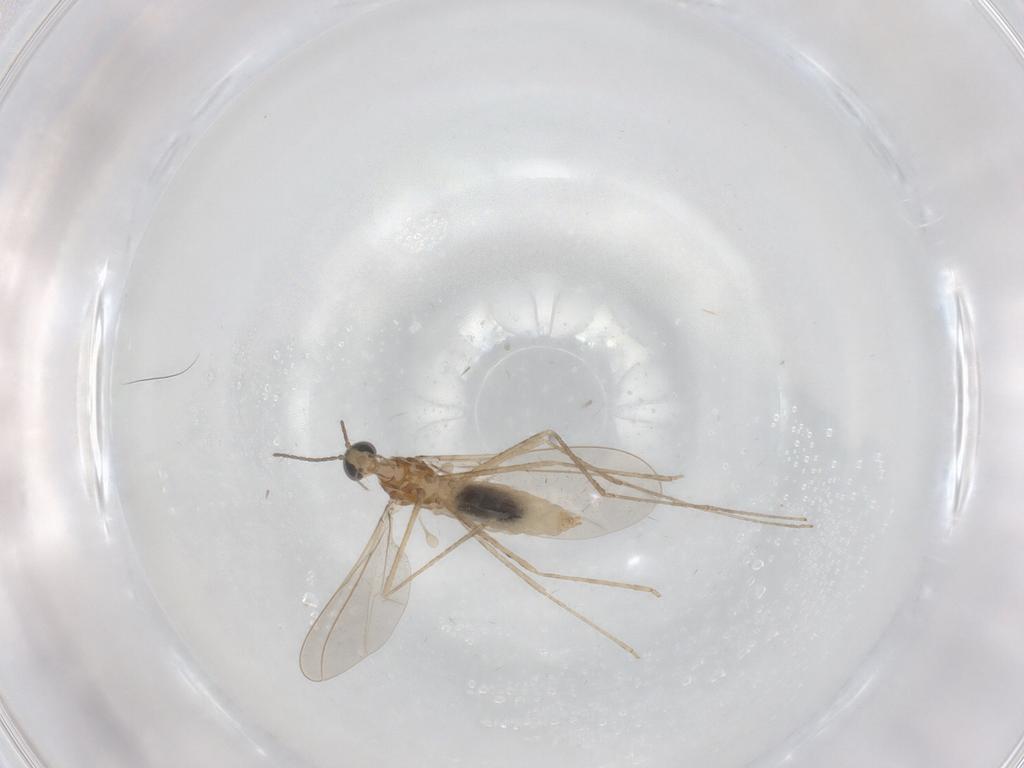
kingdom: Animalia
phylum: Arthropoda
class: Insecta
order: Diptera
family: Cecidomyiidae
